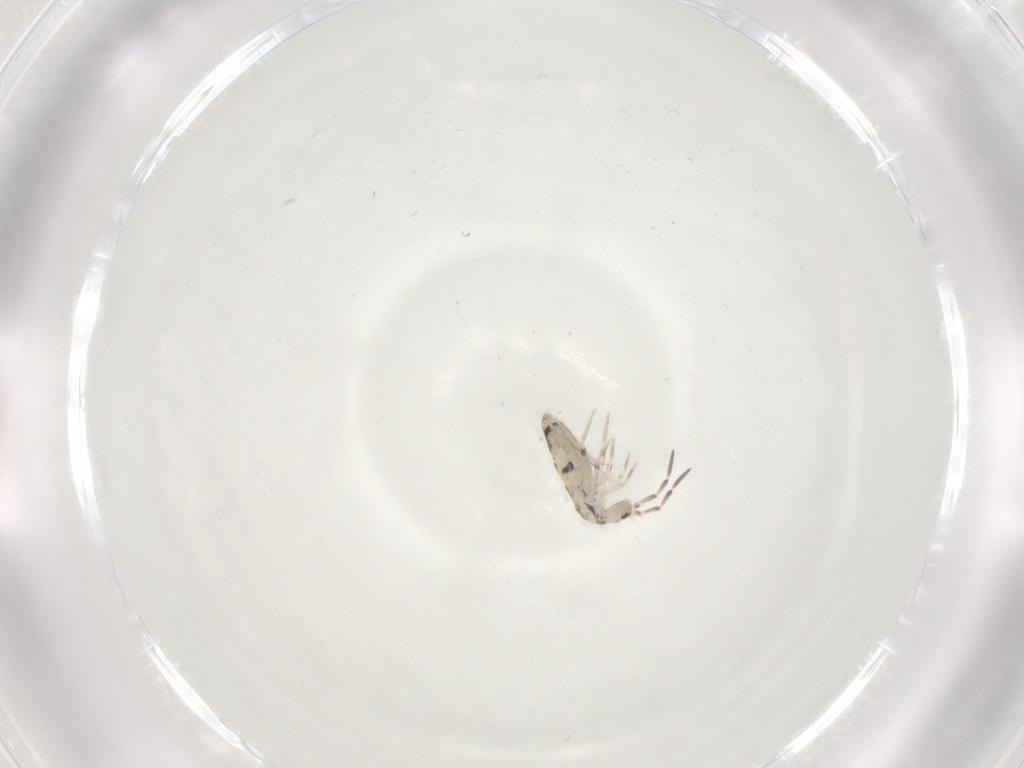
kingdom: Animalia
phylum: Arthropoda
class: Collembola
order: Entomobryomorpha
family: Entomobryidae
